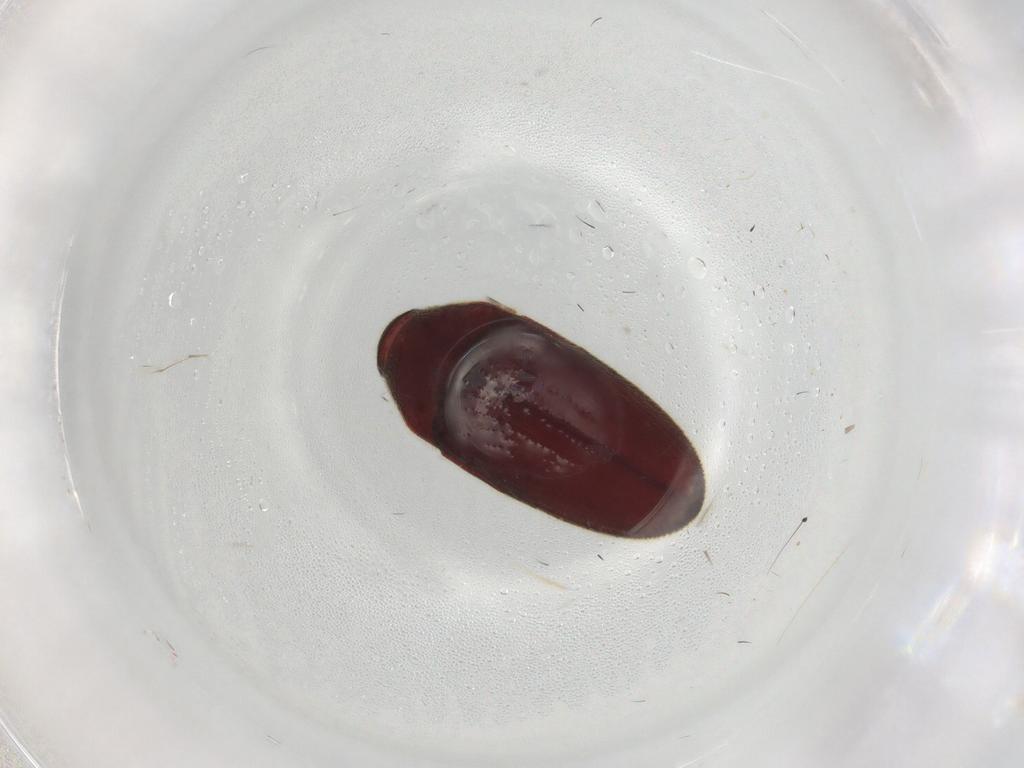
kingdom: Animalia
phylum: Arthropoda
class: Insecta
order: Coleoptera
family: Throscidae
